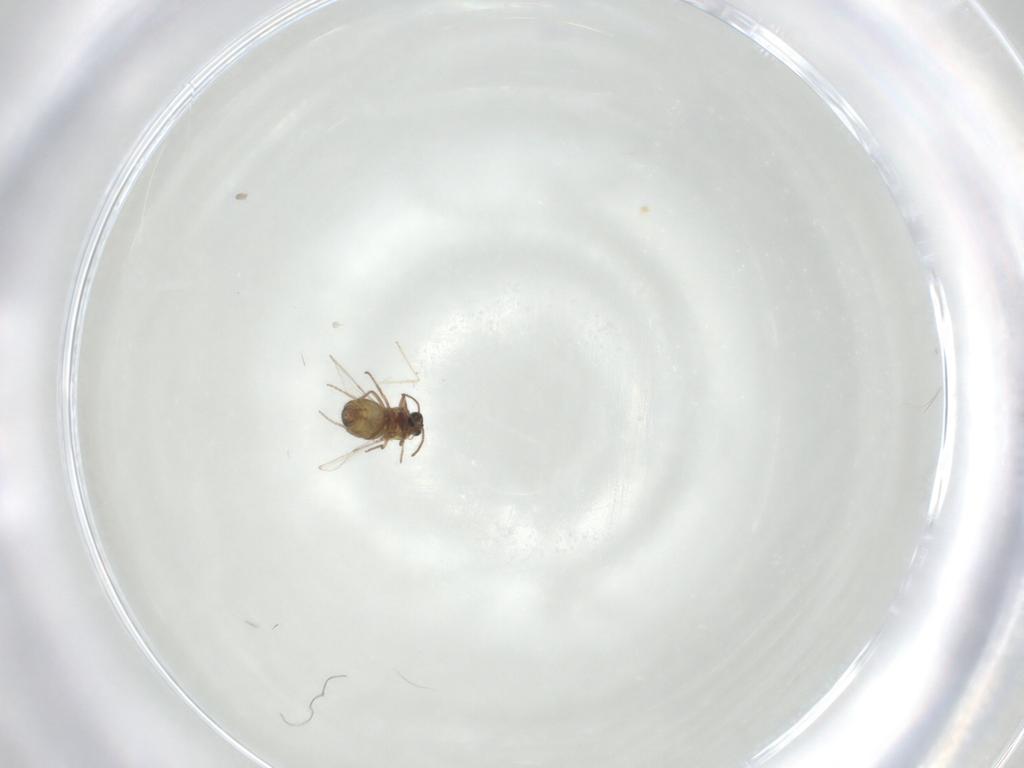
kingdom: Animalia
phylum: Arthropoda
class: Insecta
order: Diptera
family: Ceratopogonidae
